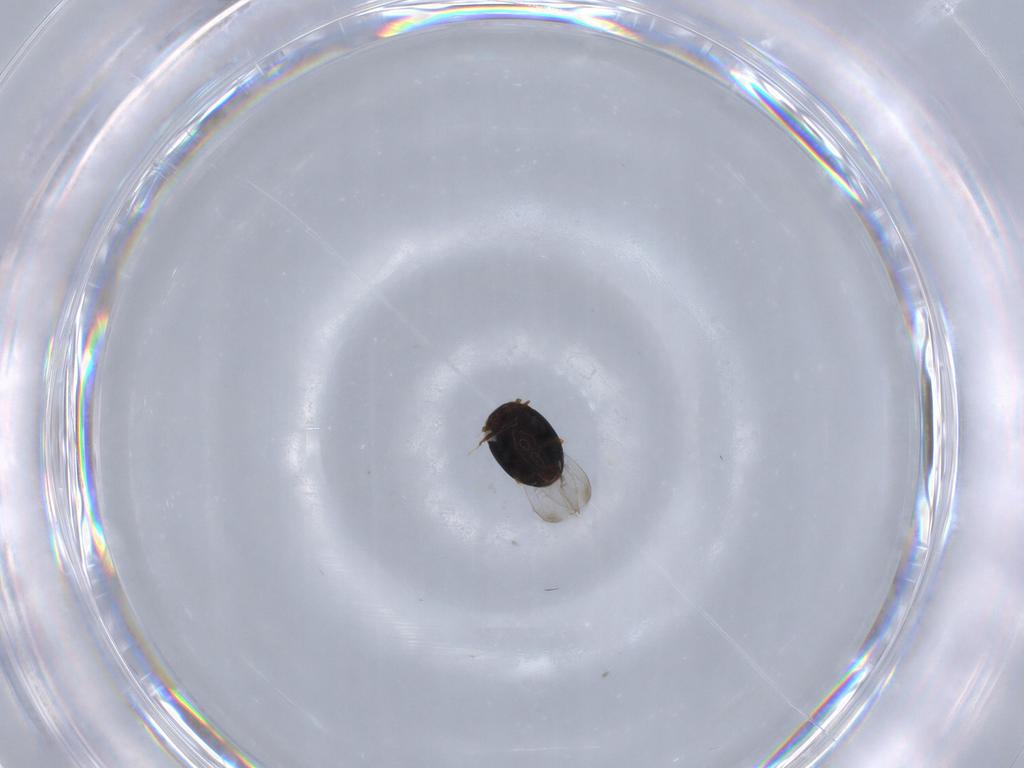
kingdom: Animalia
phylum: Arthropoda
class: Insecta
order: Coleoptera
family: Corylophidae
